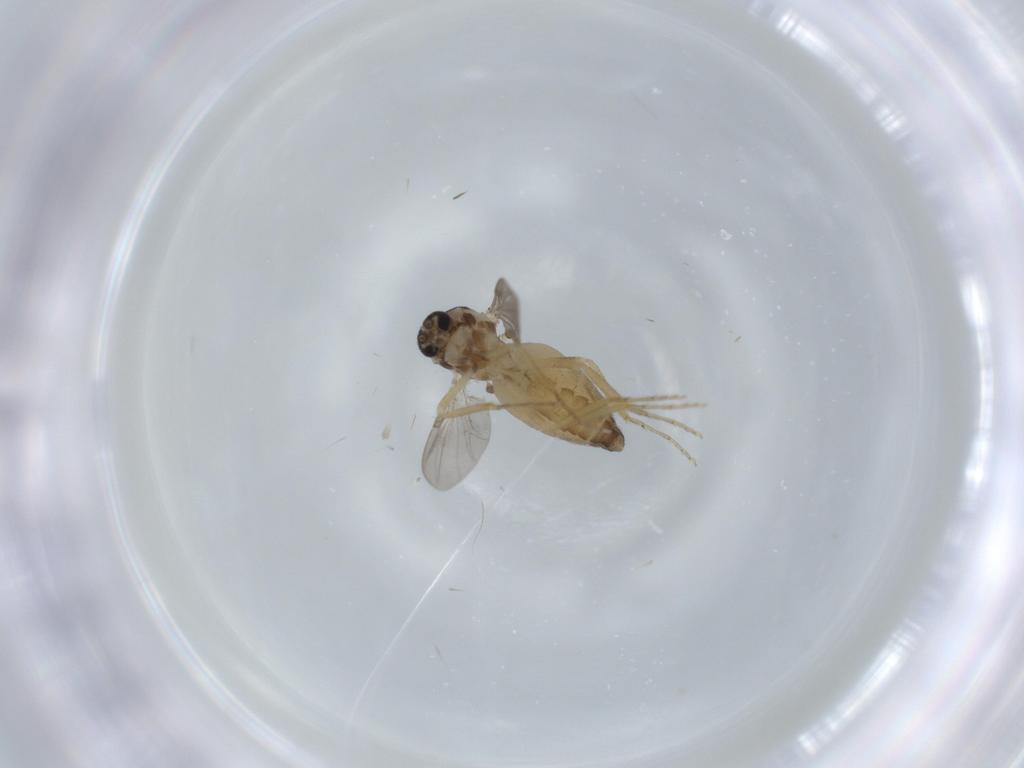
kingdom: Animalia
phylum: Arthropoda
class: Insecta
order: Diptera
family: Ceratopogonidae
